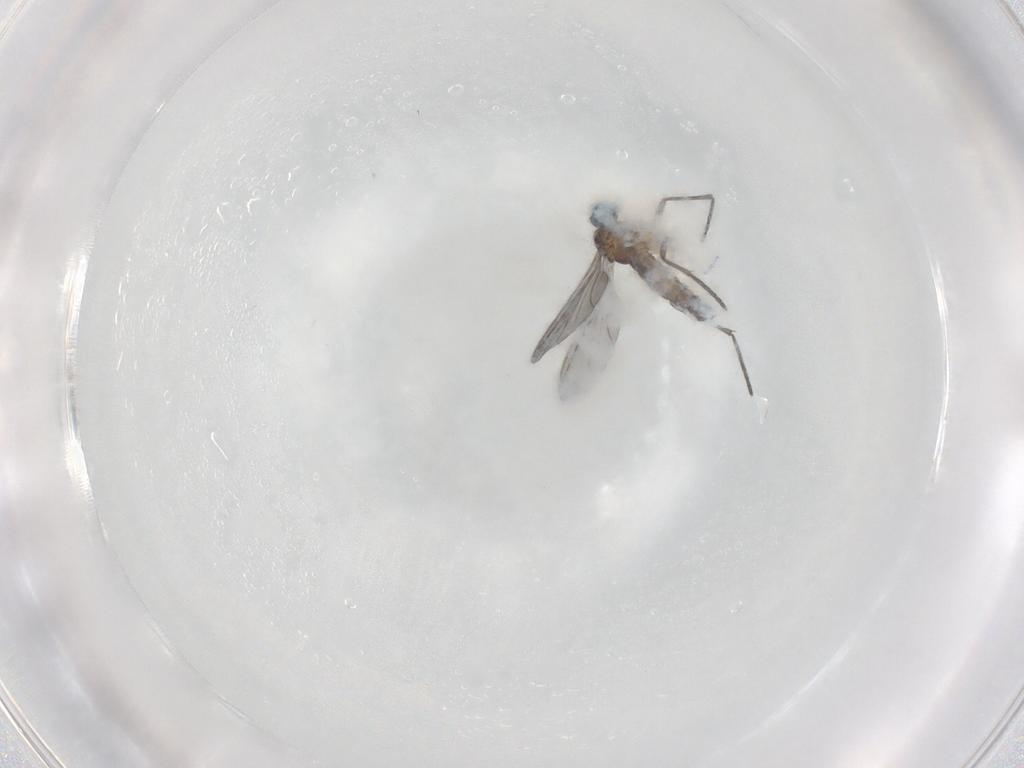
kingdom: Animalia
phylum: Arthropoda
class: Insecta
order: Diptera
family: Sciaridae
